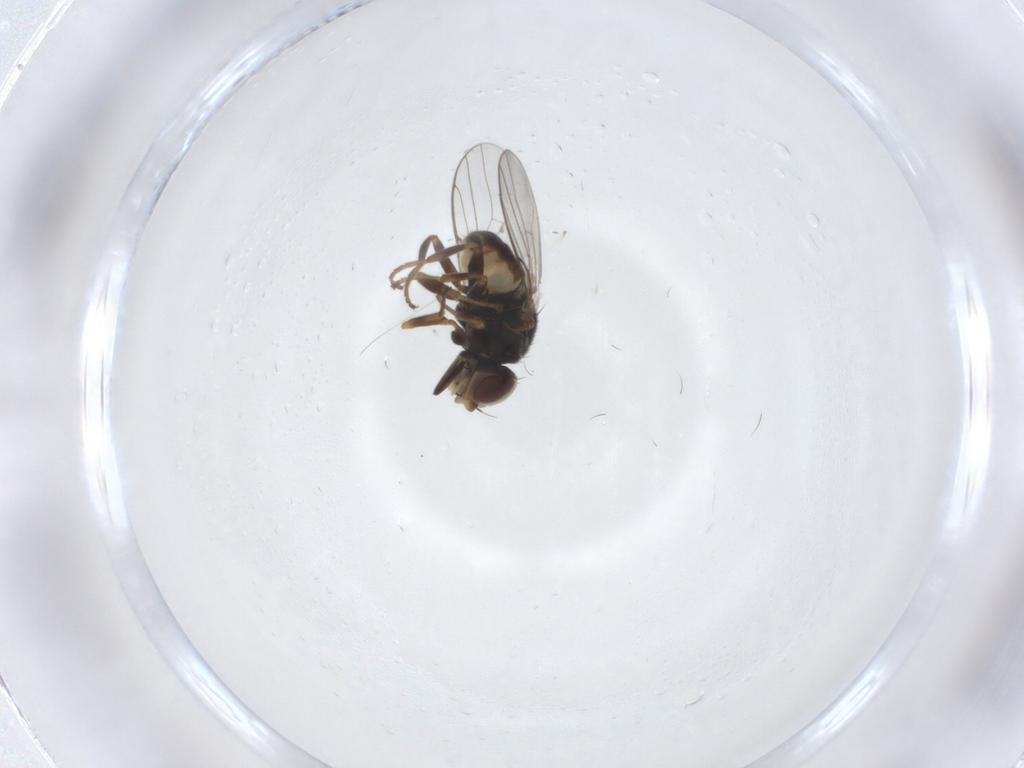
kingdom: Animalia
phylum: Arthropoda
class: Insecta
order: Diptera
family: Chloropidae
